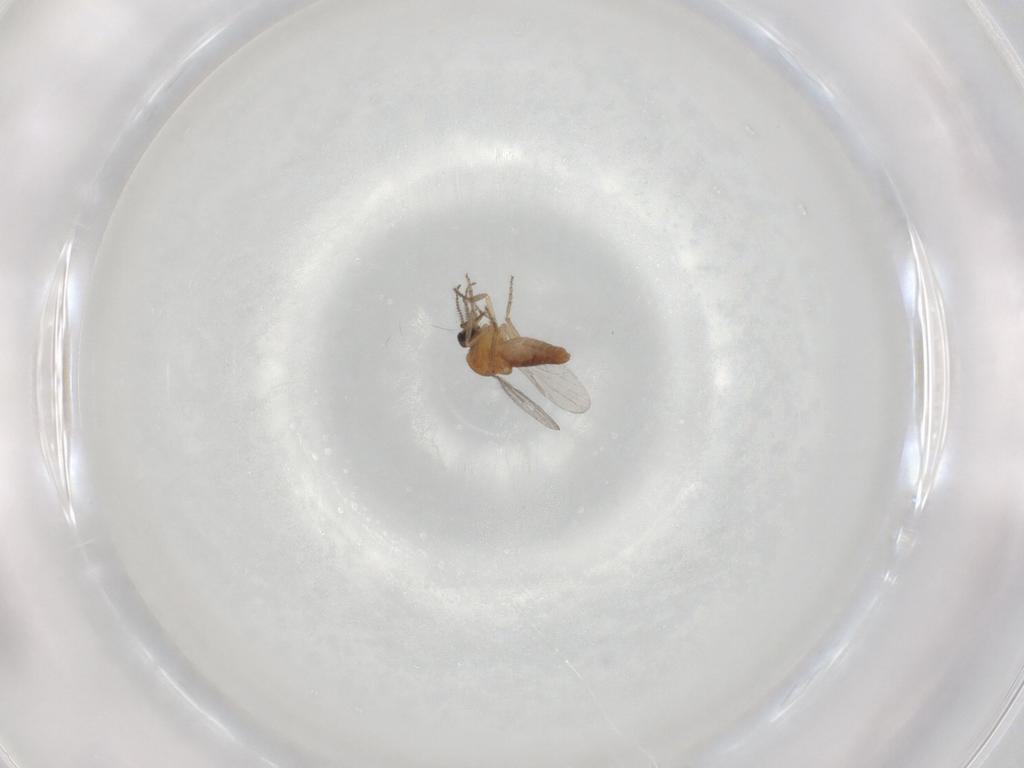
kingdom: Animalia
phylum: Arthropoda
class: Insecta
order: Diptera
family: Ceratopogonidae
